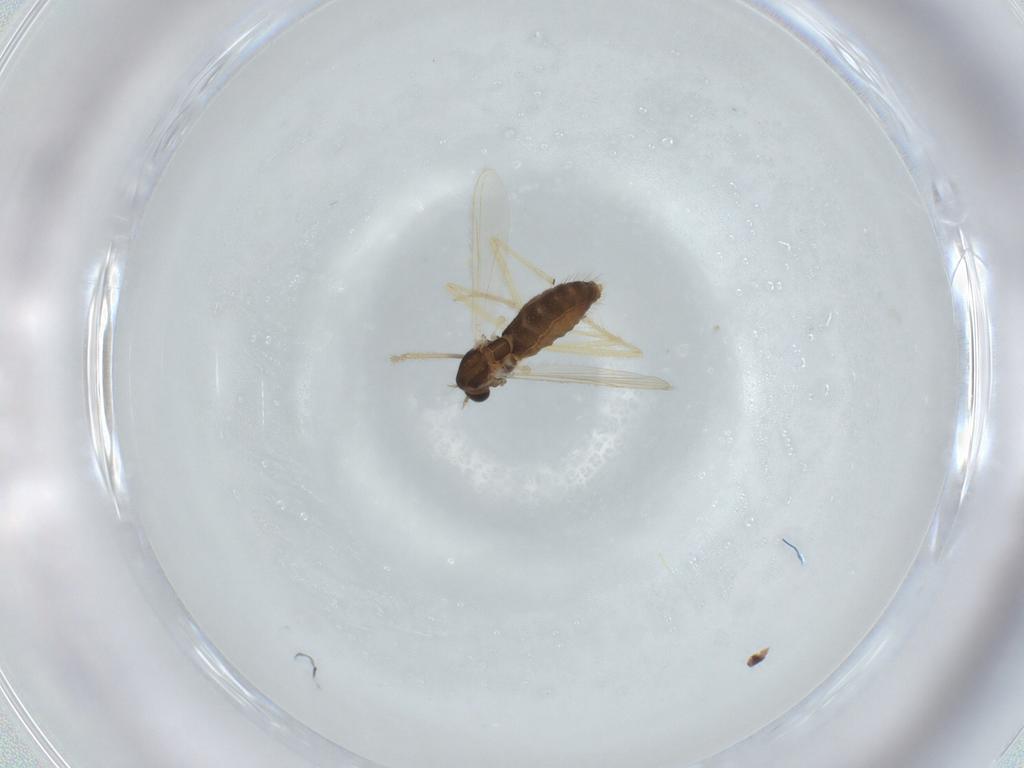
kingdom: Animalia
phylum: Arthropoda
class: Insecta
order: Diptera
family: Chironomidae
